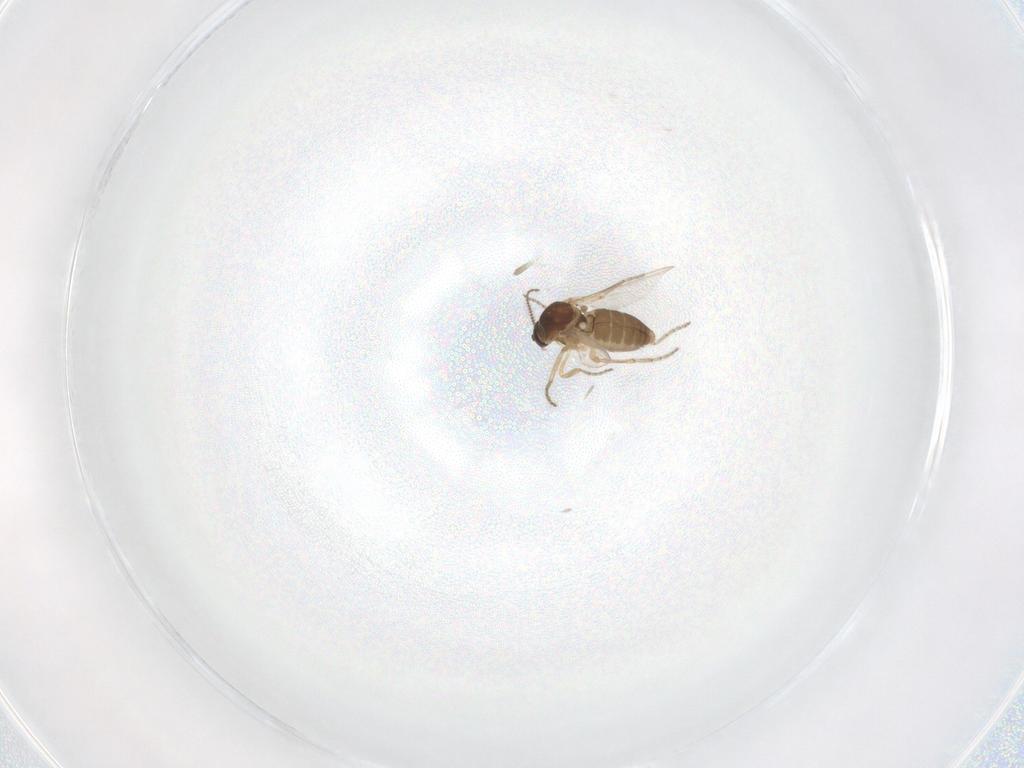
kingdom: Animalia
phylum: Arthropoda
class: Insecta
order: Diptera
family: Ceratopogonidae
